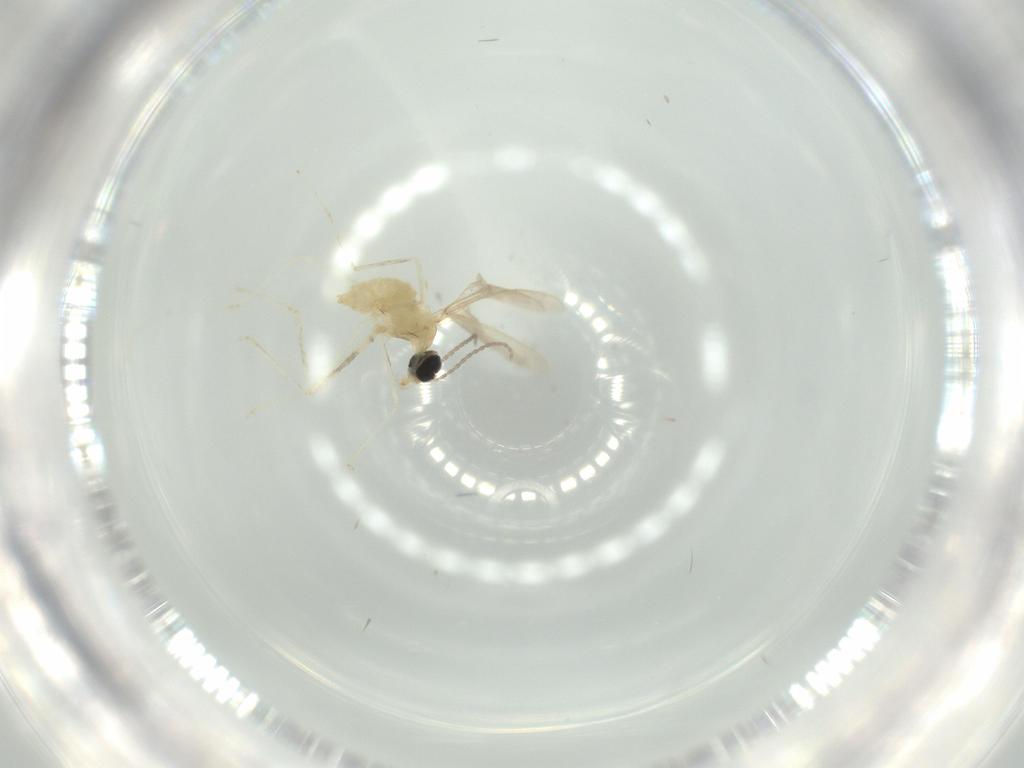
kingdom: Animalia
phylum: Arthropoda
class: Insecta
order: Diptera
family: Cecidomyiidae
